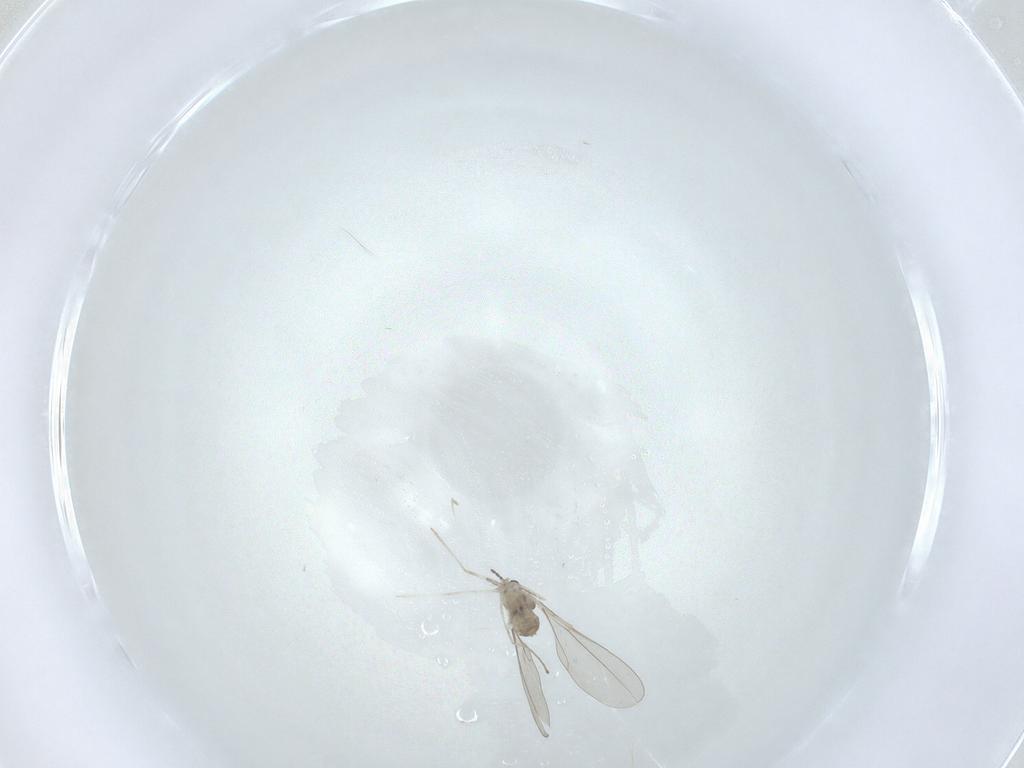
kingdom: Animalia
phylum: Arthropoda
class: Insecta
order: Diptera
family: Cecidomyiidae
